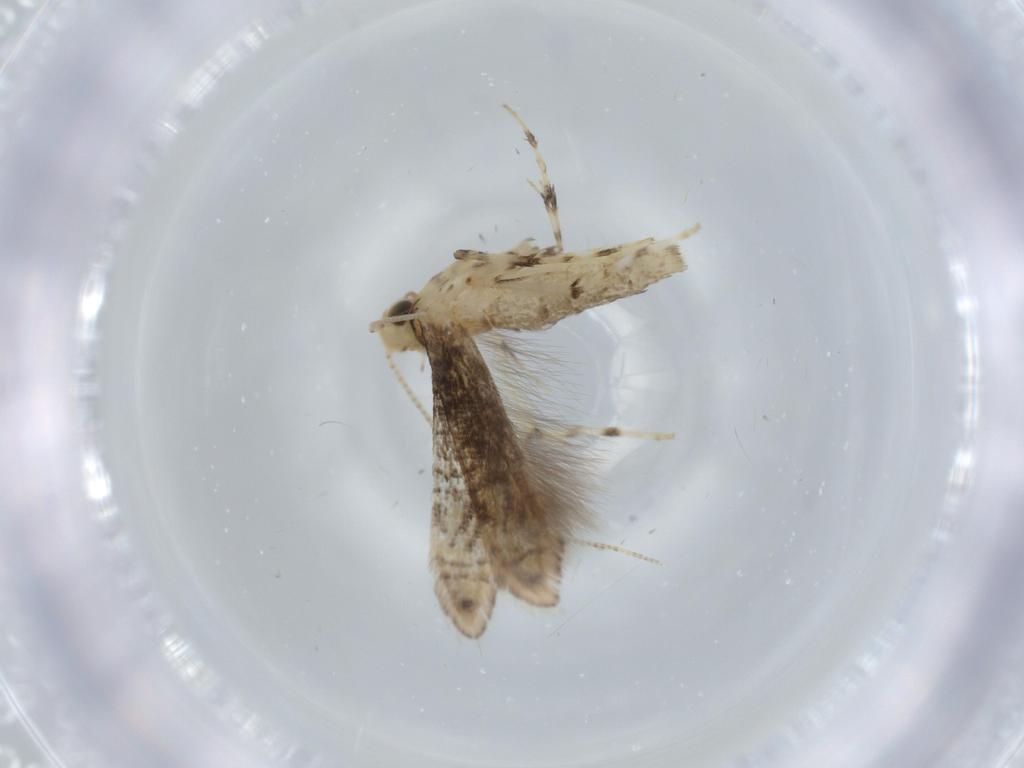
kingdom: Animalia
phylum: Arthropoda
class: Insecta
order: Lepidoptera
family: Gracillariidae
